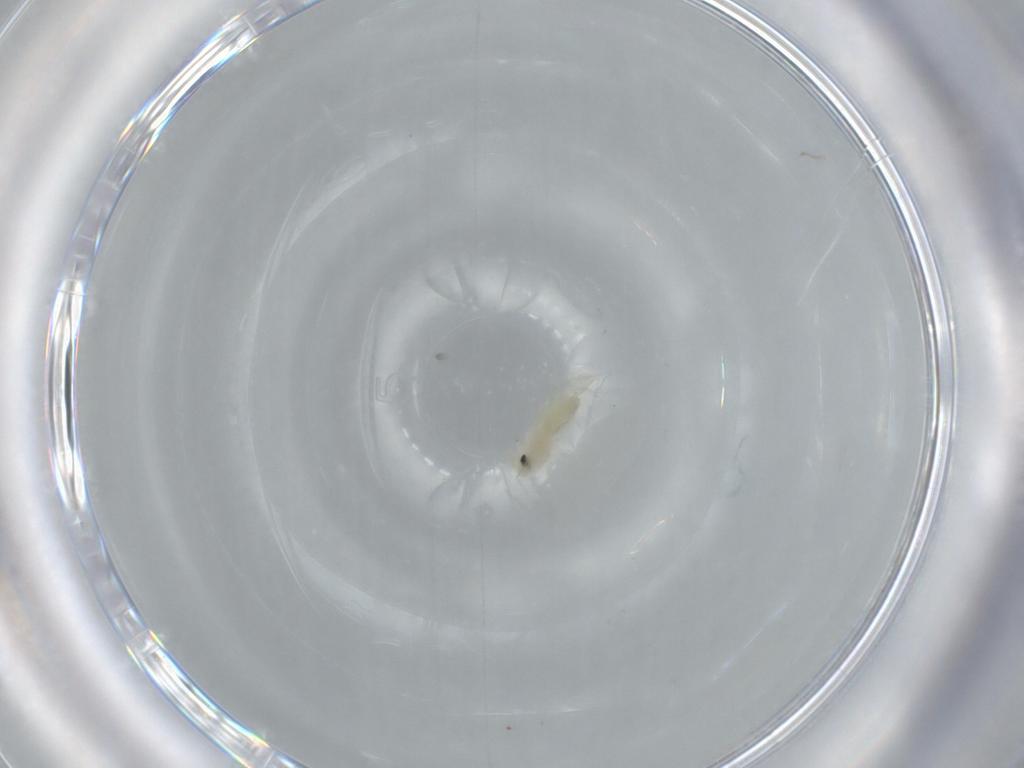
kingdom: Animalia
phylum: Arthropoda
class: Insecta
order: Hemiptera
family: Aleyrodidae
